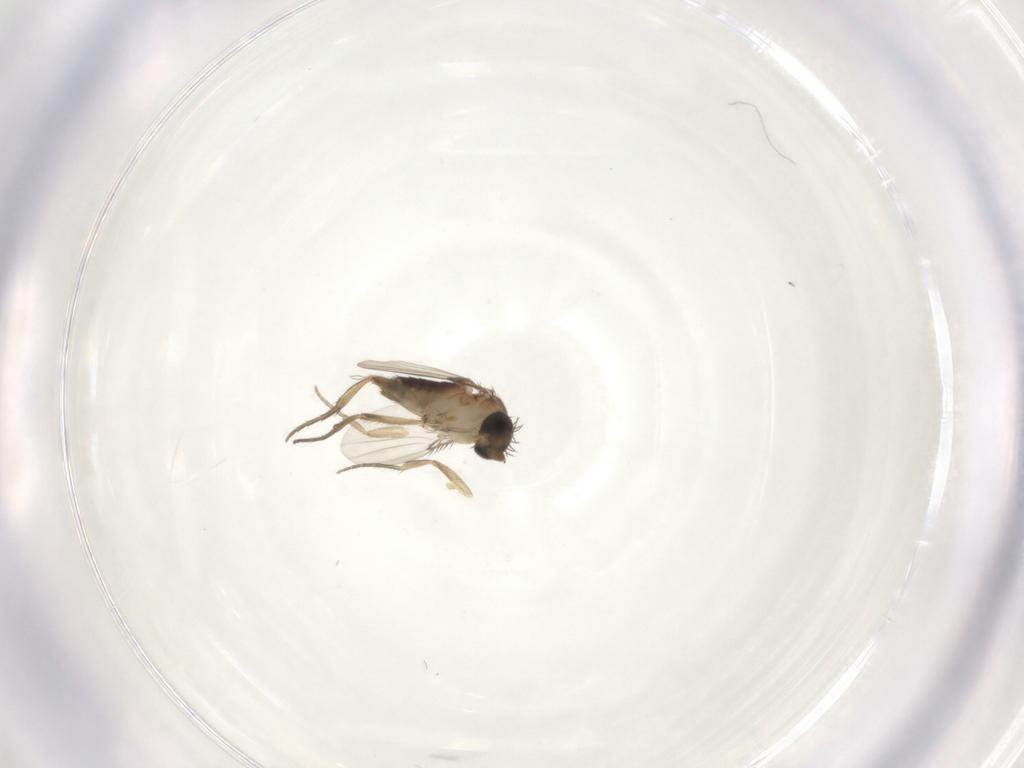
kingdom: Animalia
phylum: Arthropoda
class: Insecta
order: Diptera
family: Phoridae
